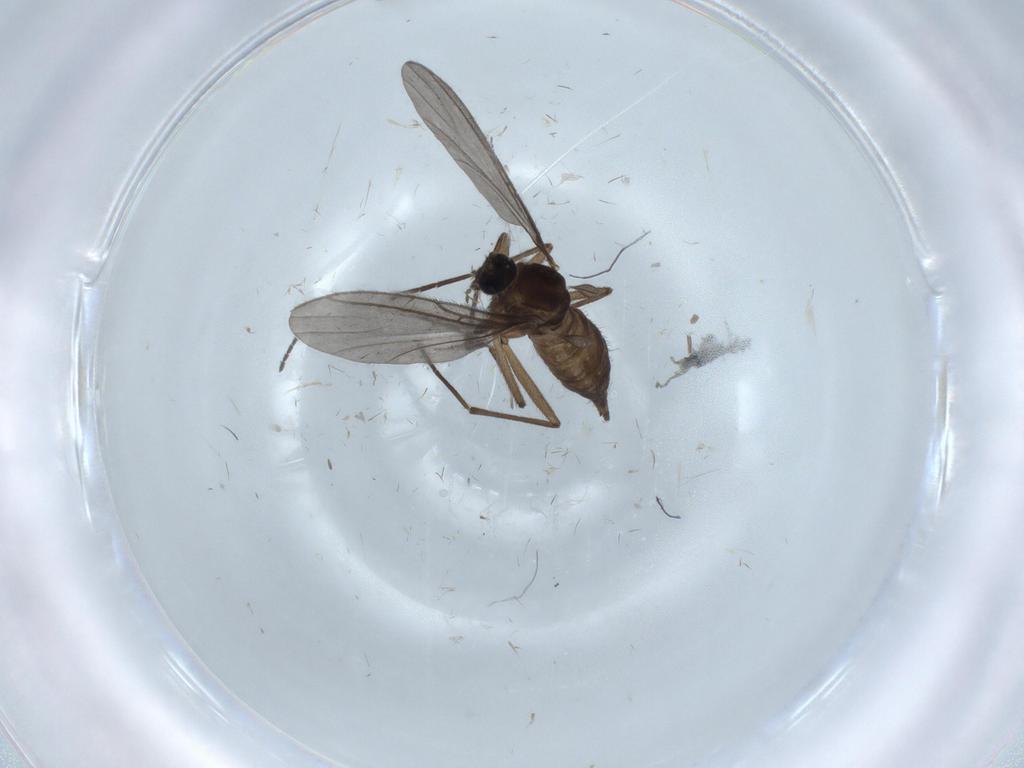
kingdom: Animalia
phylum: Arthropoda
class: Insecta
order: Diptera
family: Sciaridae
